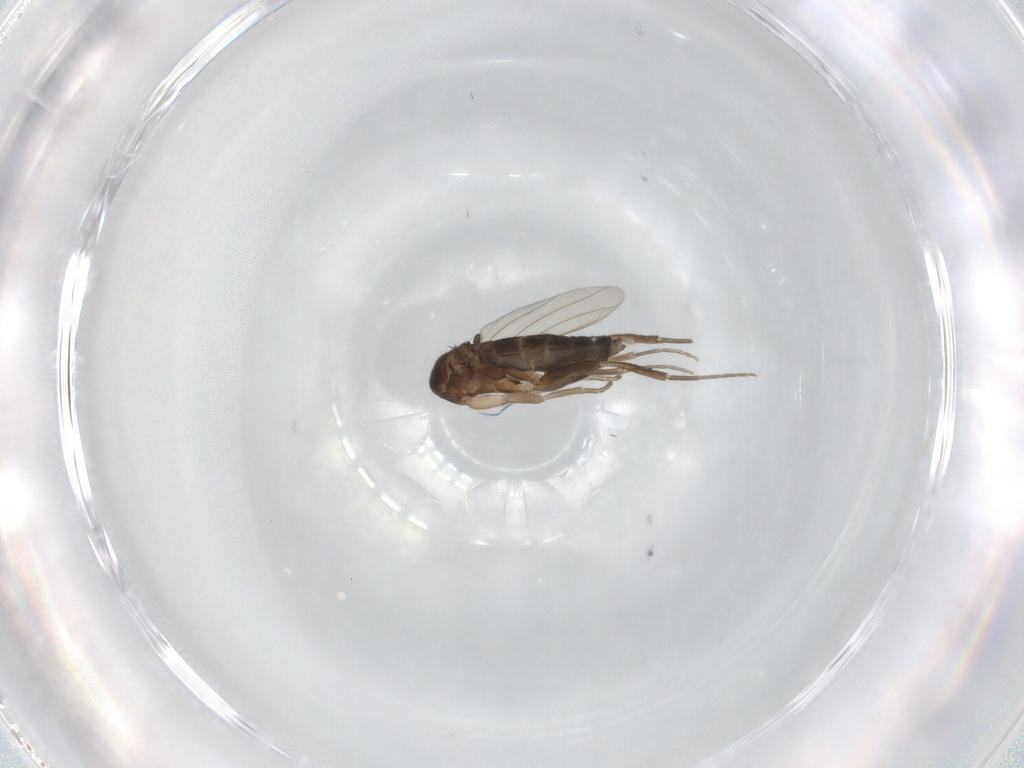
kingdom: Animalia
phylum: Arthropoda
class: Insecta
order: Diptera
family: Phoridae
